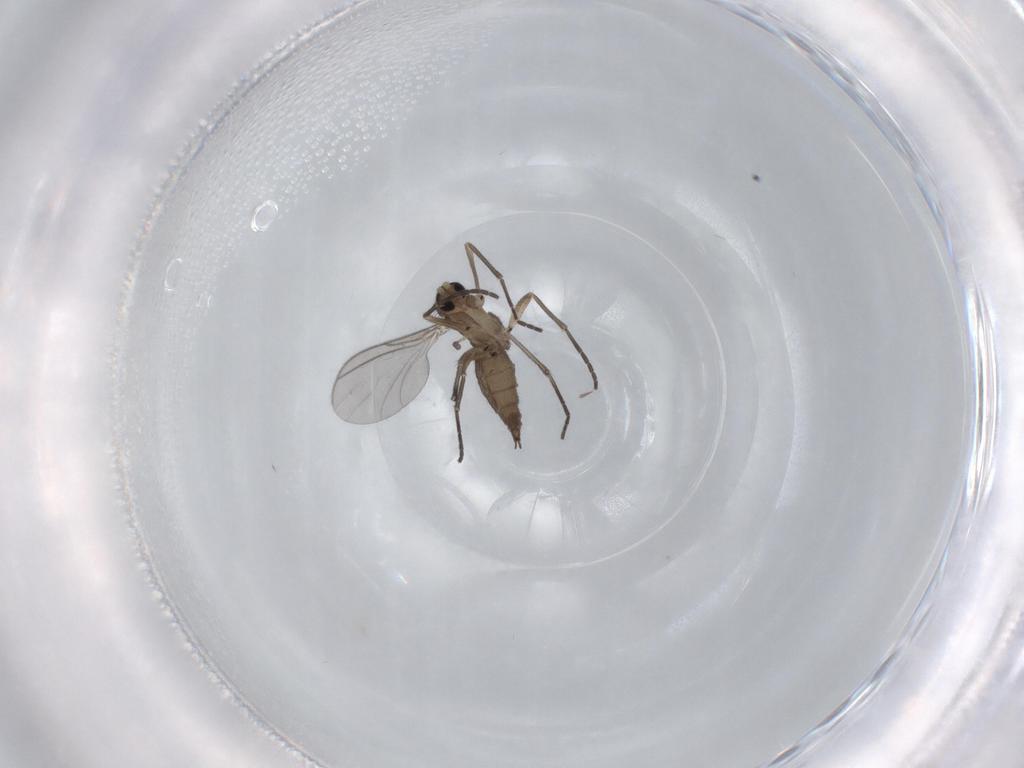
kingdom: Animalia
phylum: Arthropoda
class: Insecta
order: Diptera
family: Sciaridae
